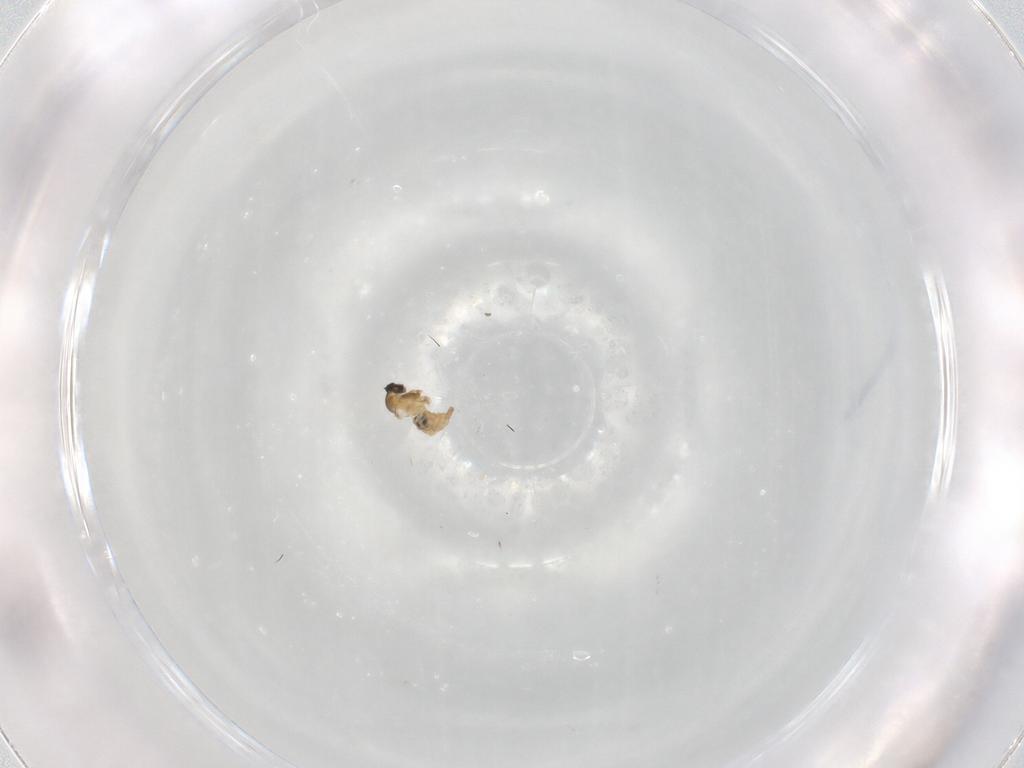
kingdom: Animalia
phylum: Arthropoda
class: Insecta
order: Diptera
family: Cecidomyiidae
